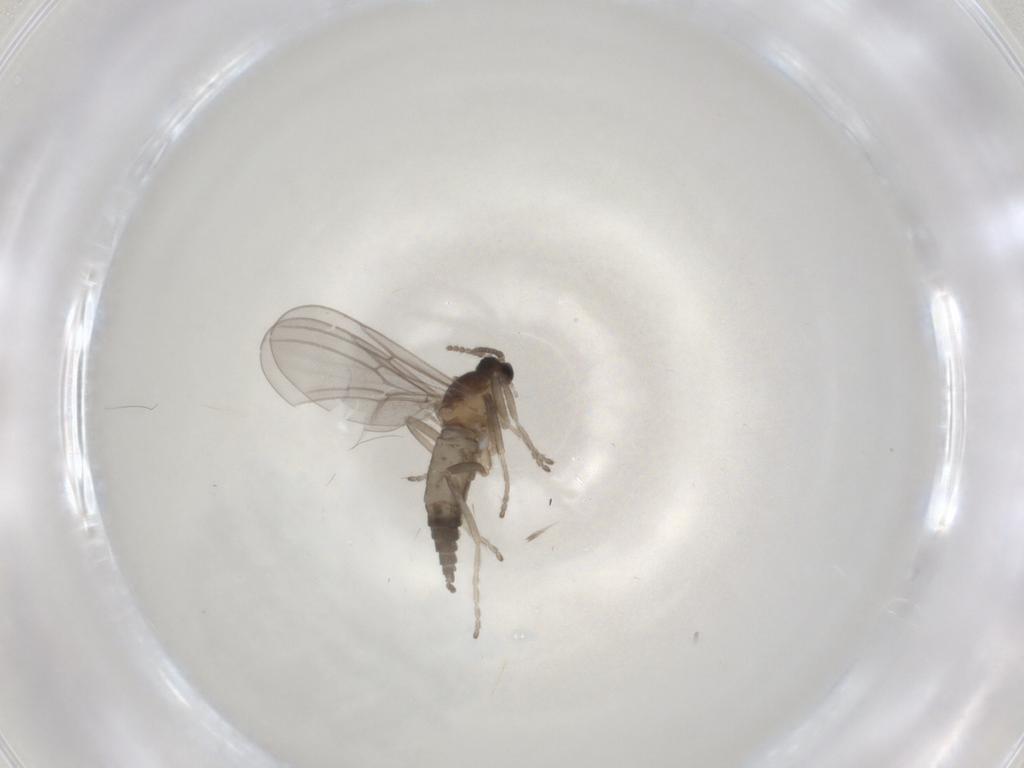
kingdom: Animalia
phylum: Arthropoda
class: Insecta
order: Diptera
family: Cecidomyiidae
